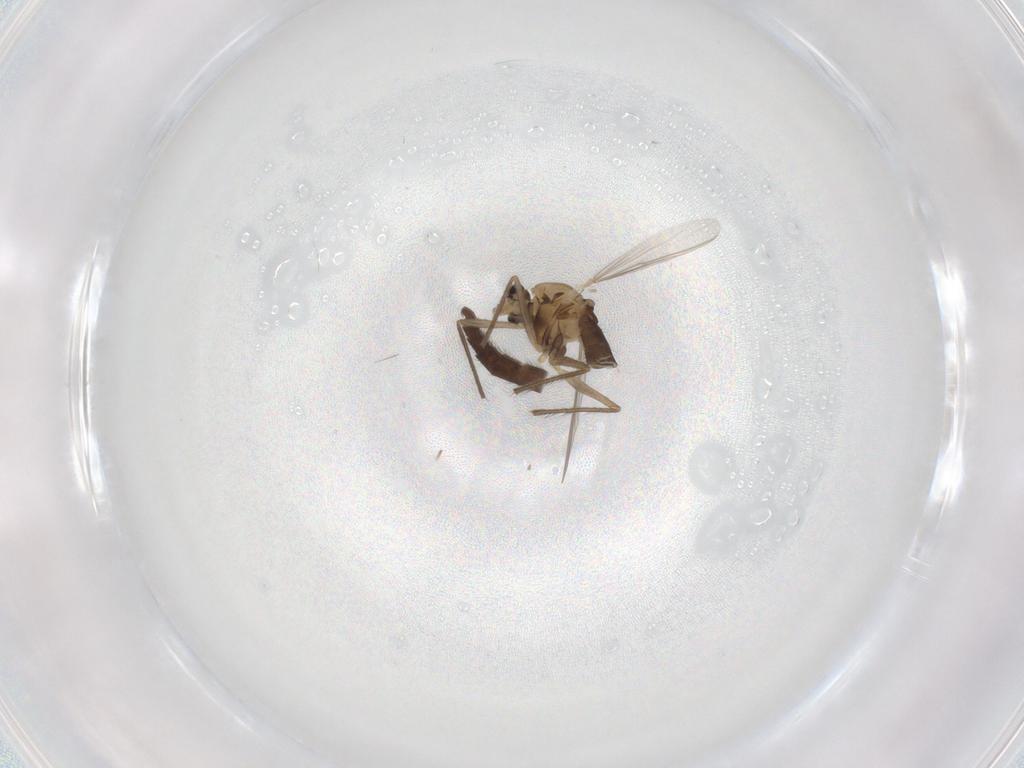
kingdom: Animalia
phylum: Arthropoda
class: Insecta
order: Diptera
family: Chironomidae
